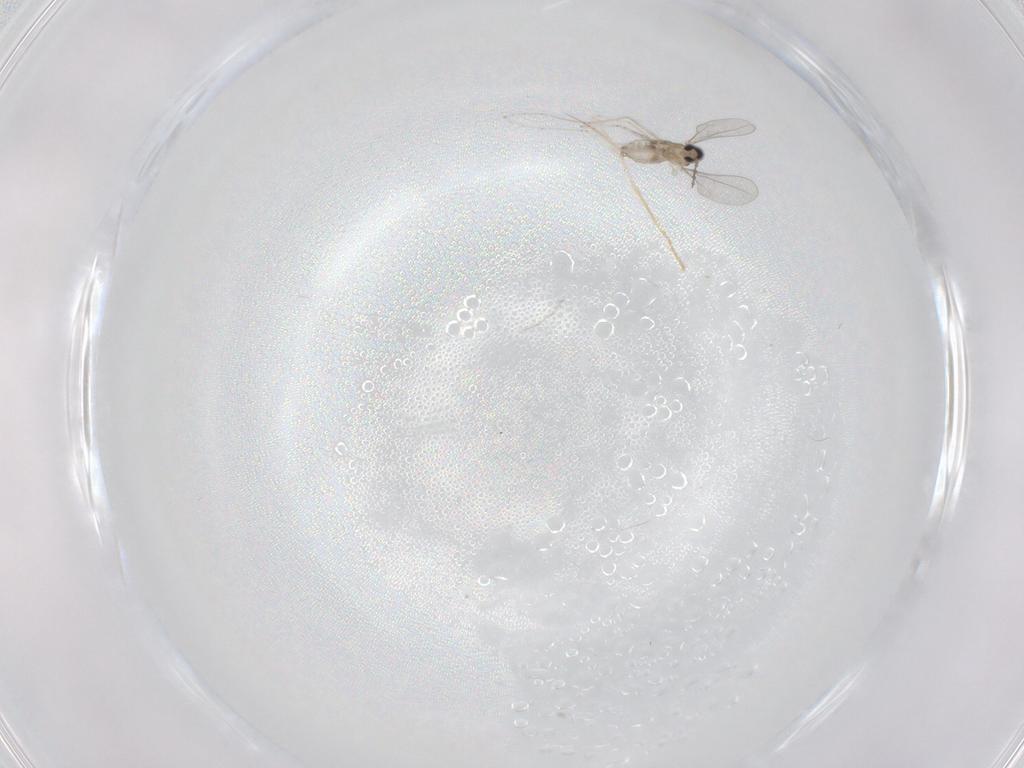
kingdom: Animalia
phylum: Arthropoda
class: Insecta
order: Diptera
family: Cecidomyiidae
